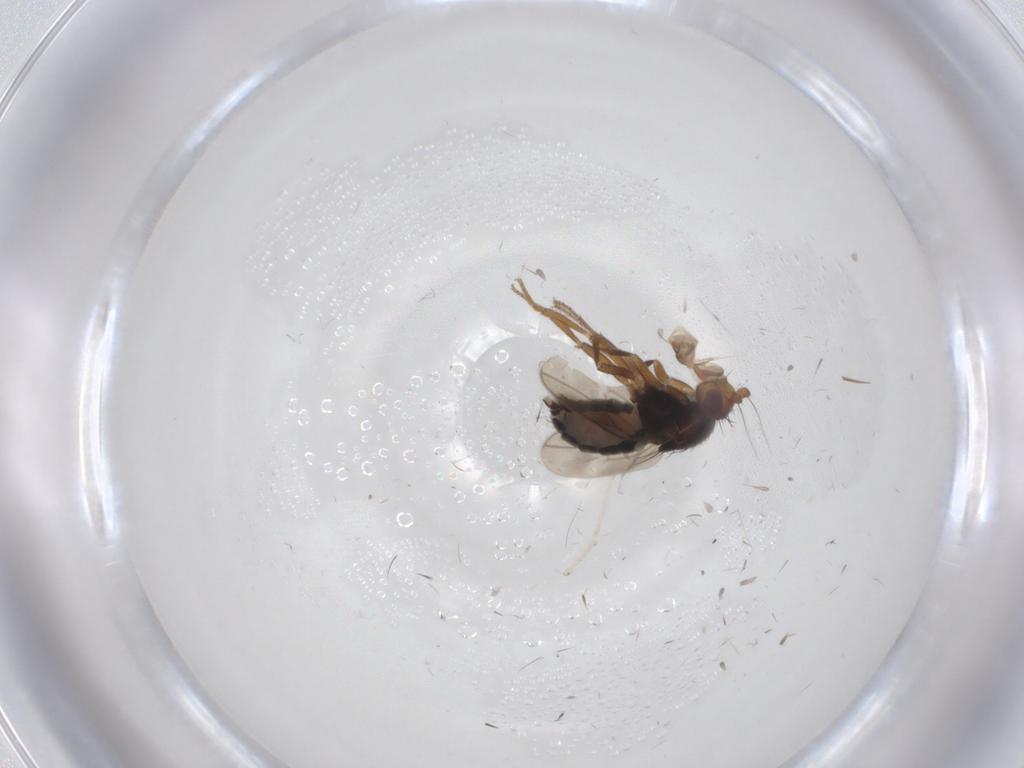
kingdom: Animalia
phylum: Arthropoda
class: Insecta
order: Diptera
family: Sphaeroceridae
